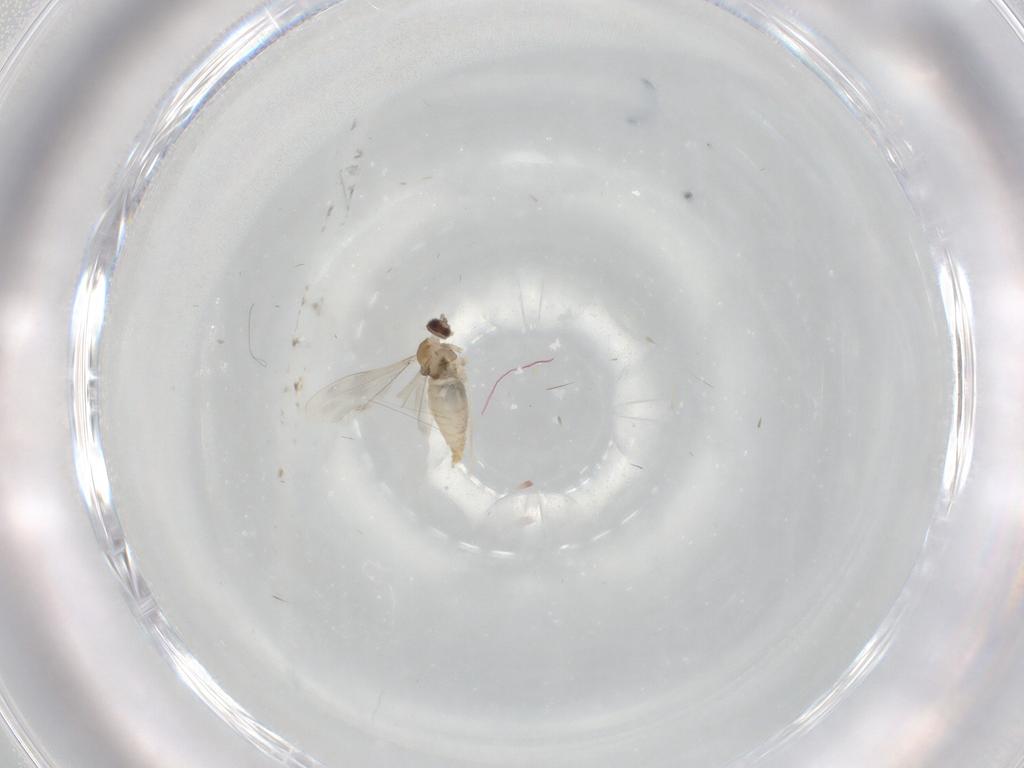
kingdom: Animalia
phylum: Arthropoda
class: Insecta
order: Diptera
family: Cecidomyiidae
